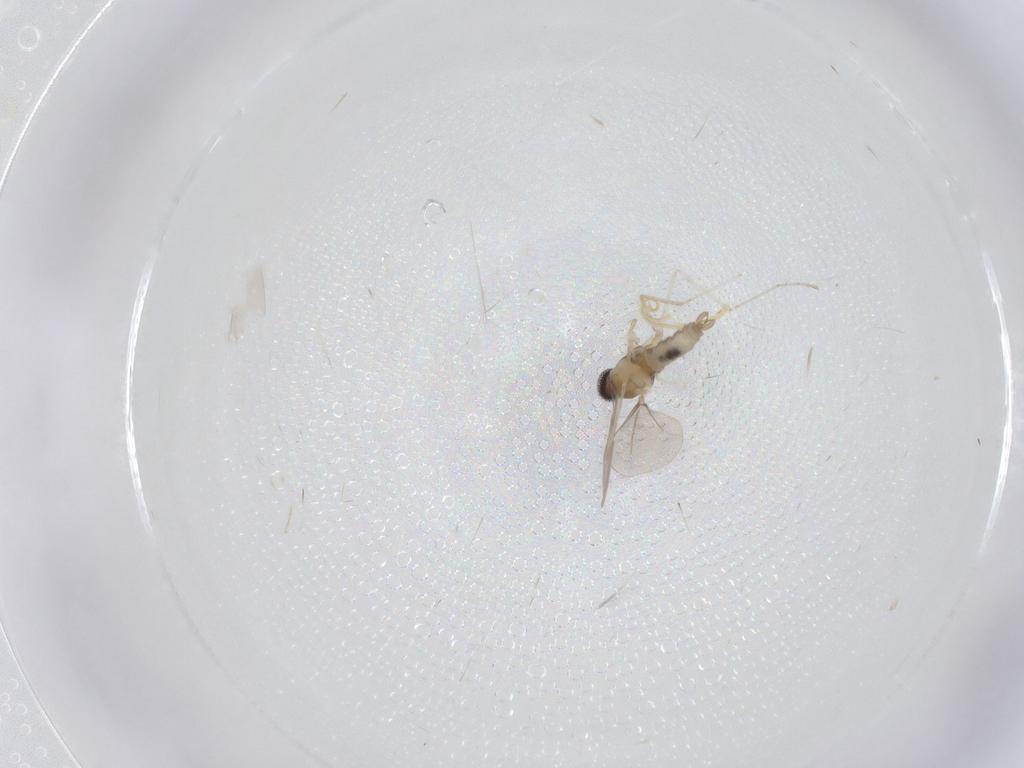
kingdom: Animalia
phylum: Arthropoda
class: Insecta
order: Diptera
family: Cecidomyiidae
